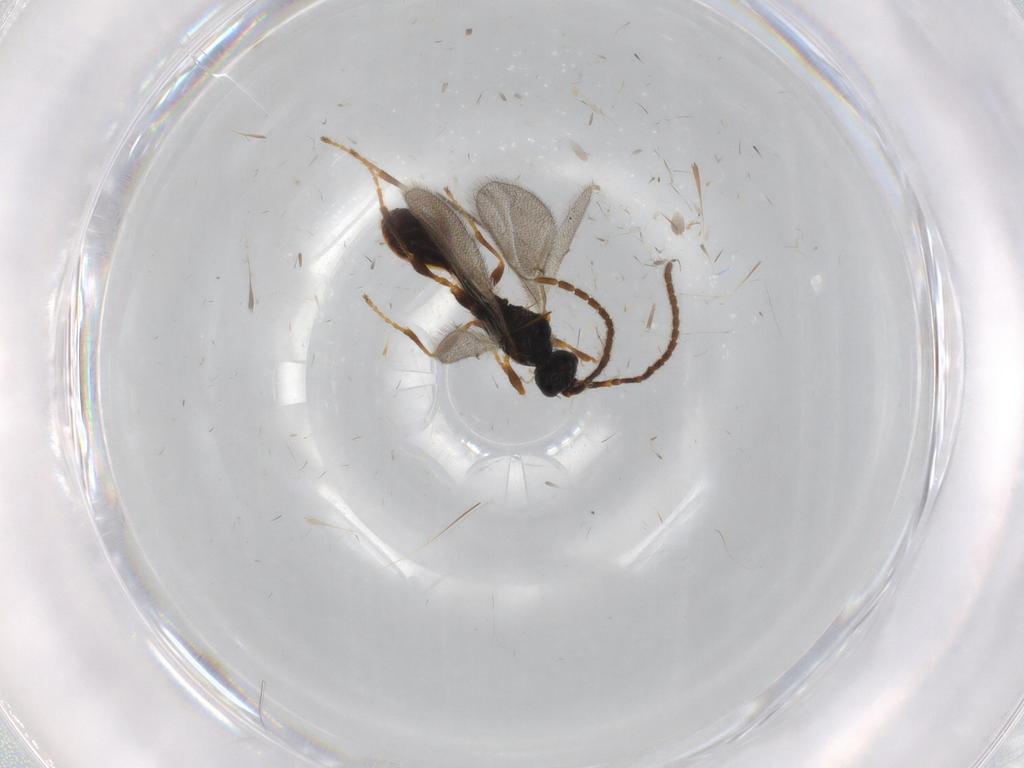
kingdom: Animalia
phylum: Arthropoda
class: Insecta
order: Hymenoptera
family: Diapriidae
